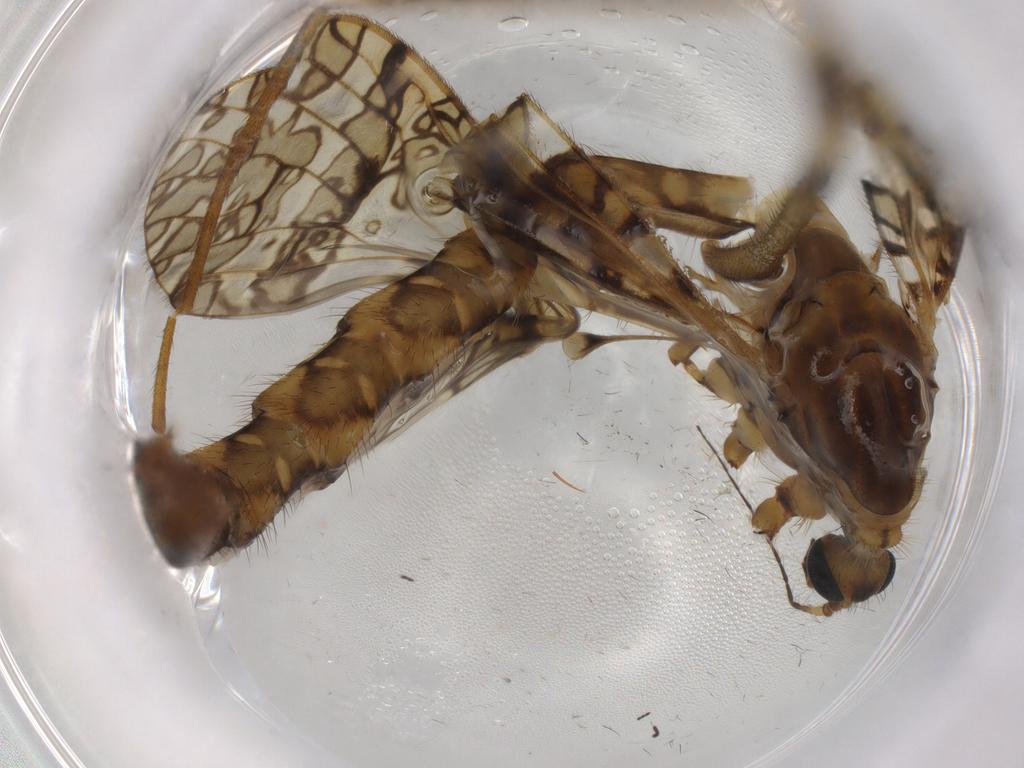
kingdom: Animalia
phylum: Arthropoda
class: Insecta
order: Diptera
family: Limoniidae
